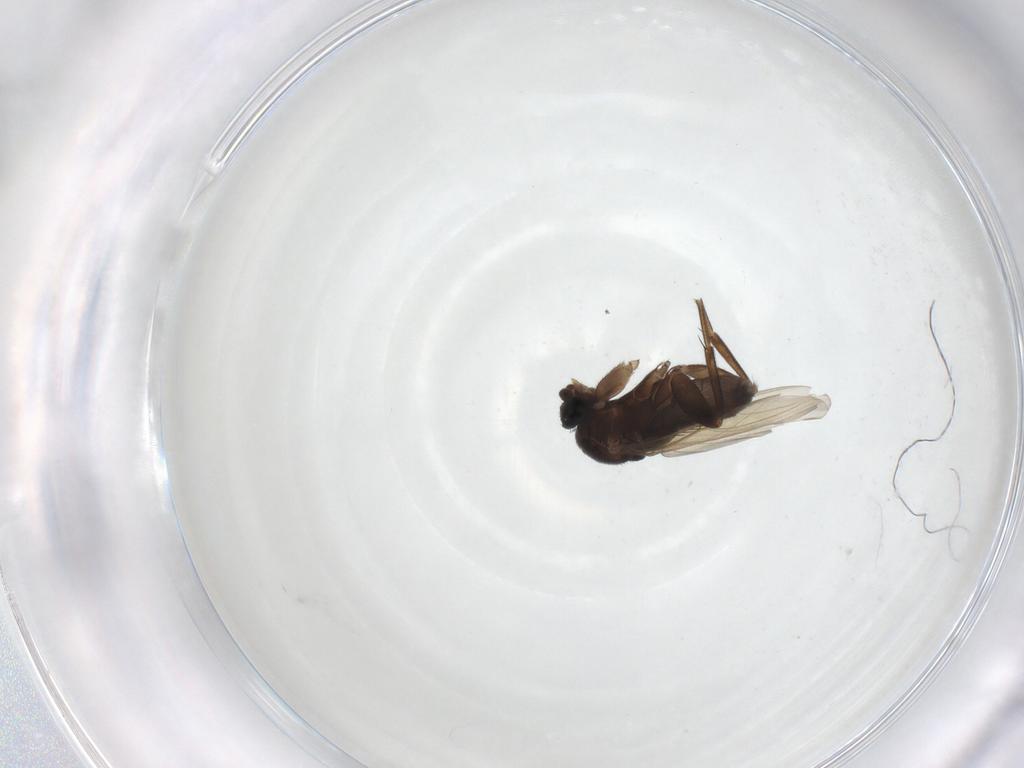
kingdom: Animalia
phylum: Arthropoda
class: Insecta
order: Diptera
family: Phoridae
